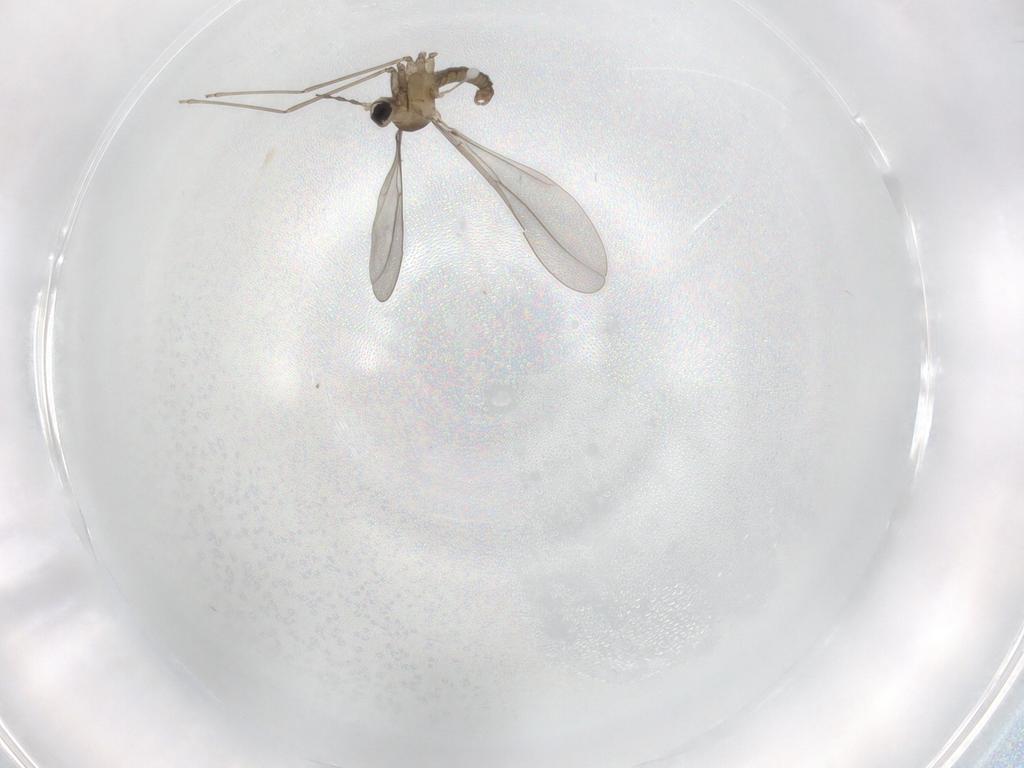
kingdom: Animalia
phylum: Arthropoda
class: Insecta
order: Diptera
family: Cecidomyiidae
